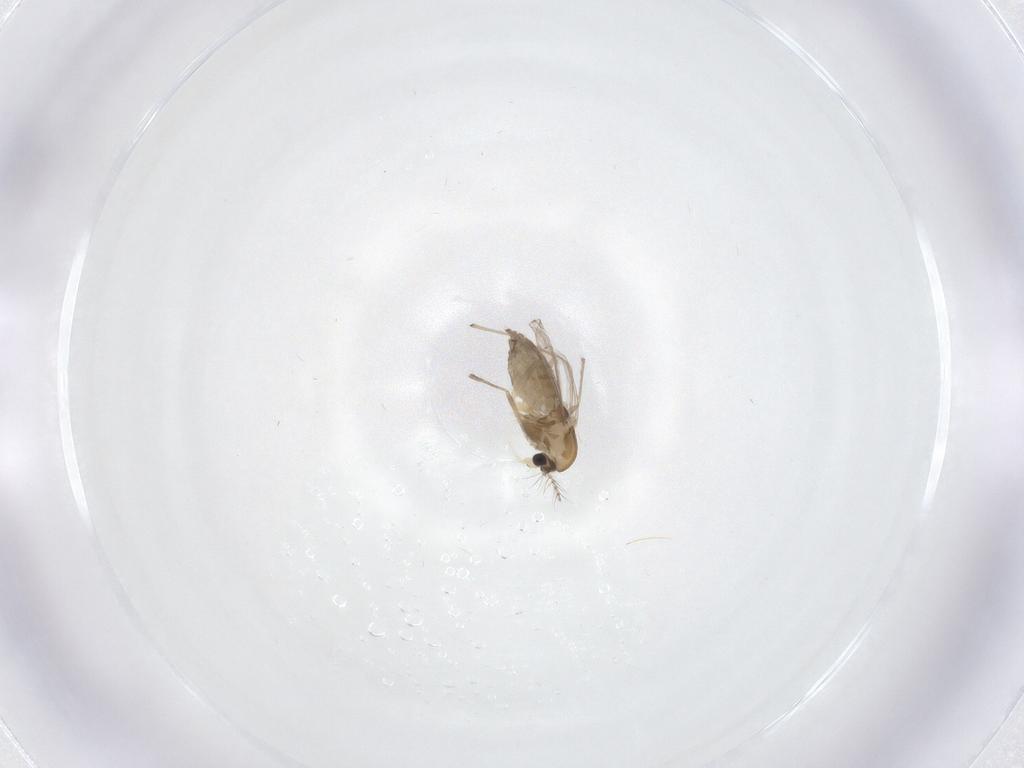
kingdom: Animalia
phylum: Arthropoda
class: Insecta
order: Diptera
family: Chironomidae
